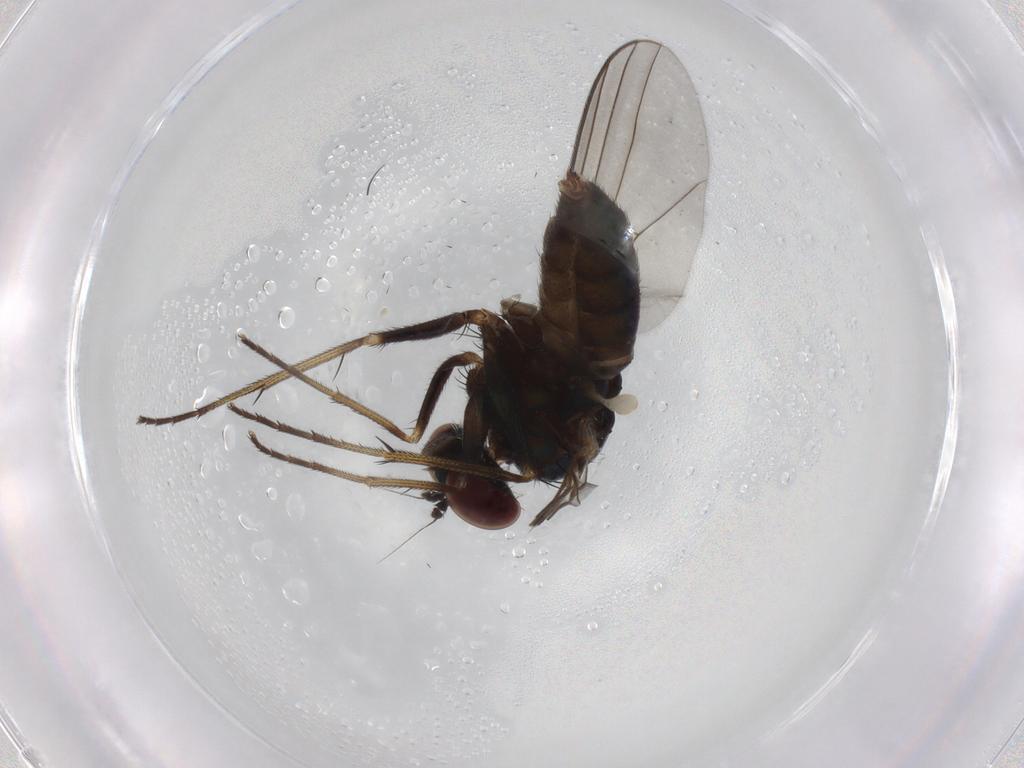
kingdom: Animalia
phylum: Arthropoda
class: Insecta
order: Diptera
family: Dolichopodidae
